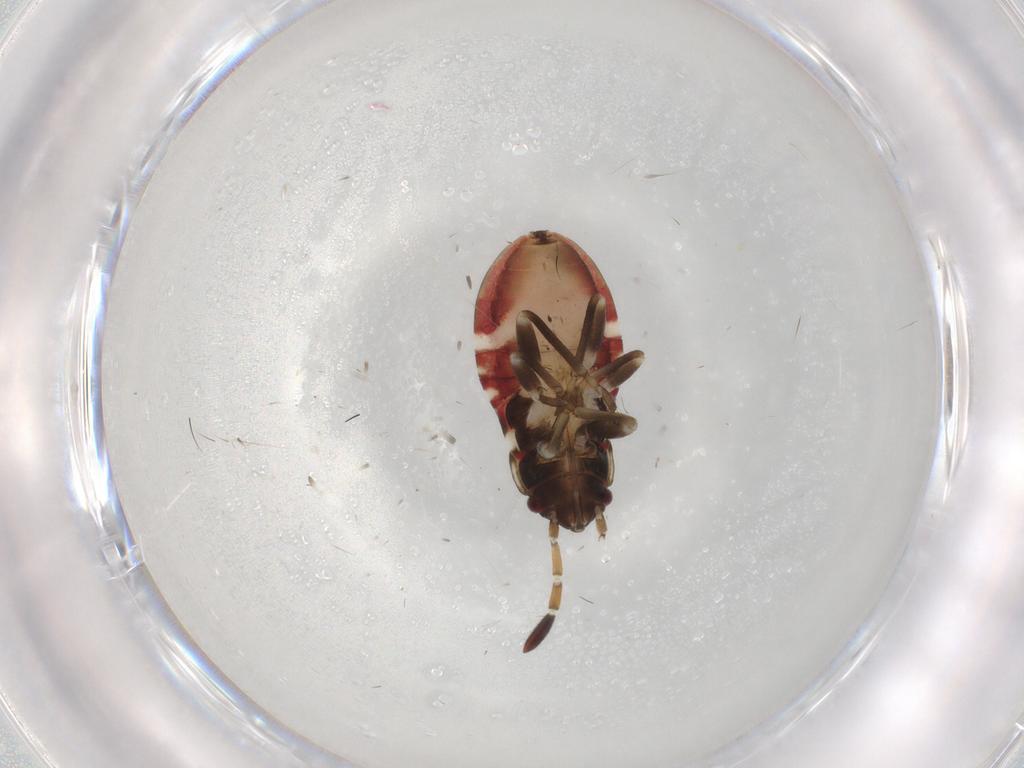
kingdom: Animalia
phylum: Arthropoda
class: Insecta
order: Hemiptera
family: Rhyparochromidae
